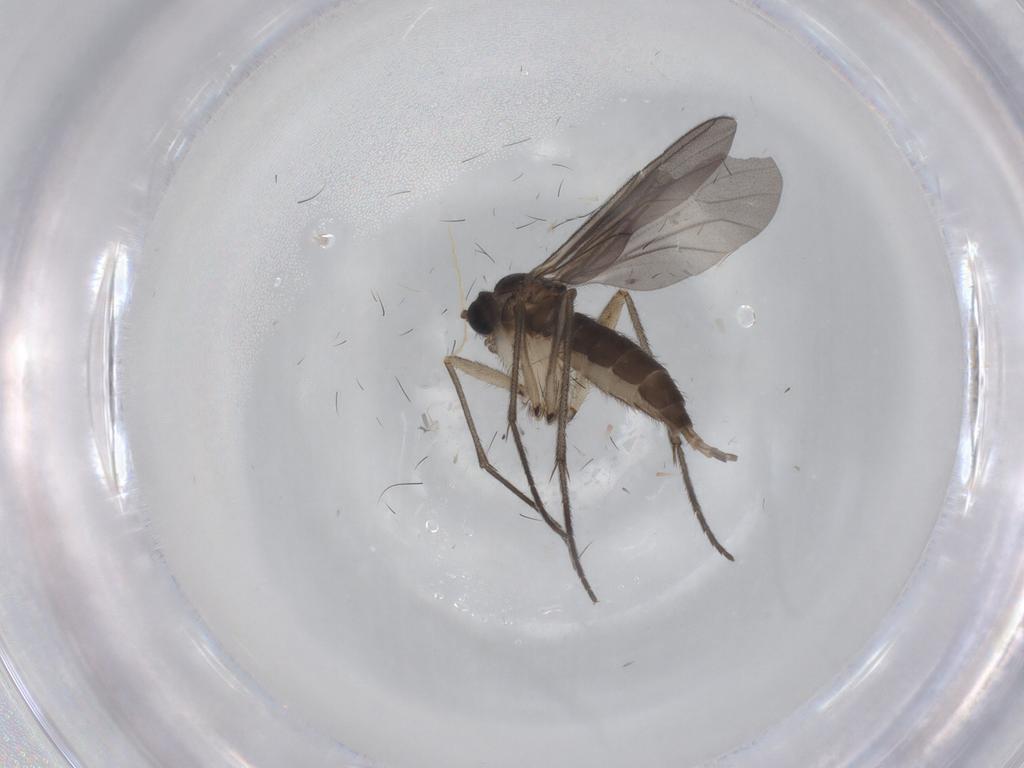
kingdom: Animalia
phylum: Arthropoda
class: Insecta
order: Diptera
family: Sciaridae
